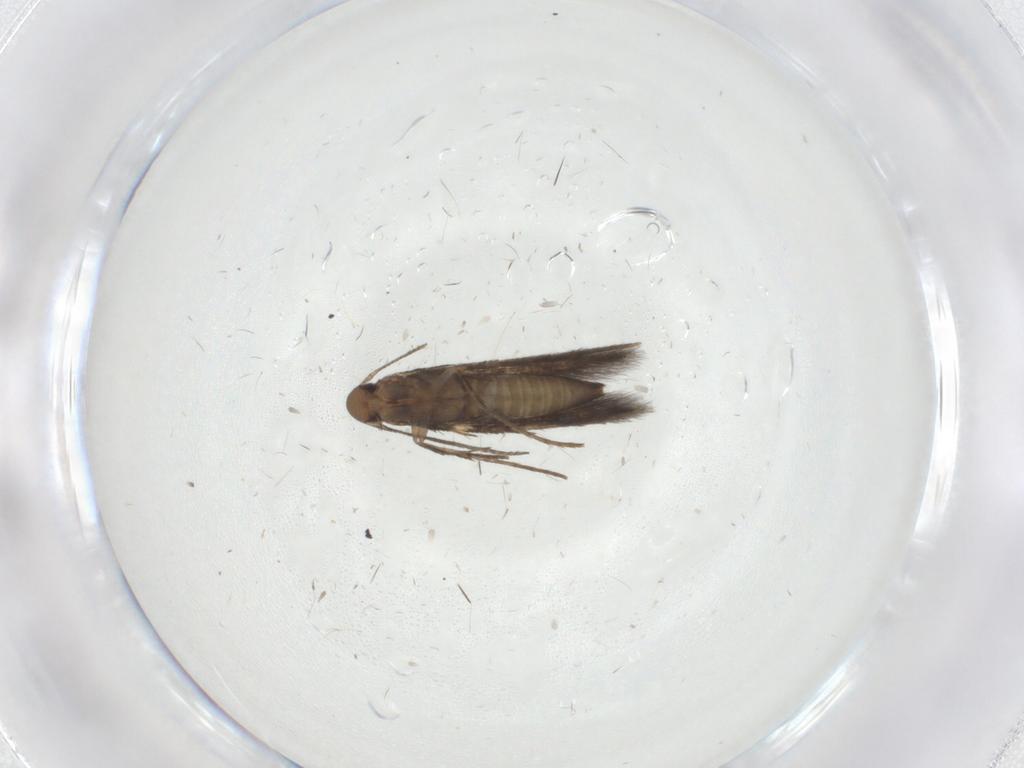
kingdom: Animalia
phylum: Arthropoda
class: Insecta
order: Lepidoptera
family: Gelechiidae
